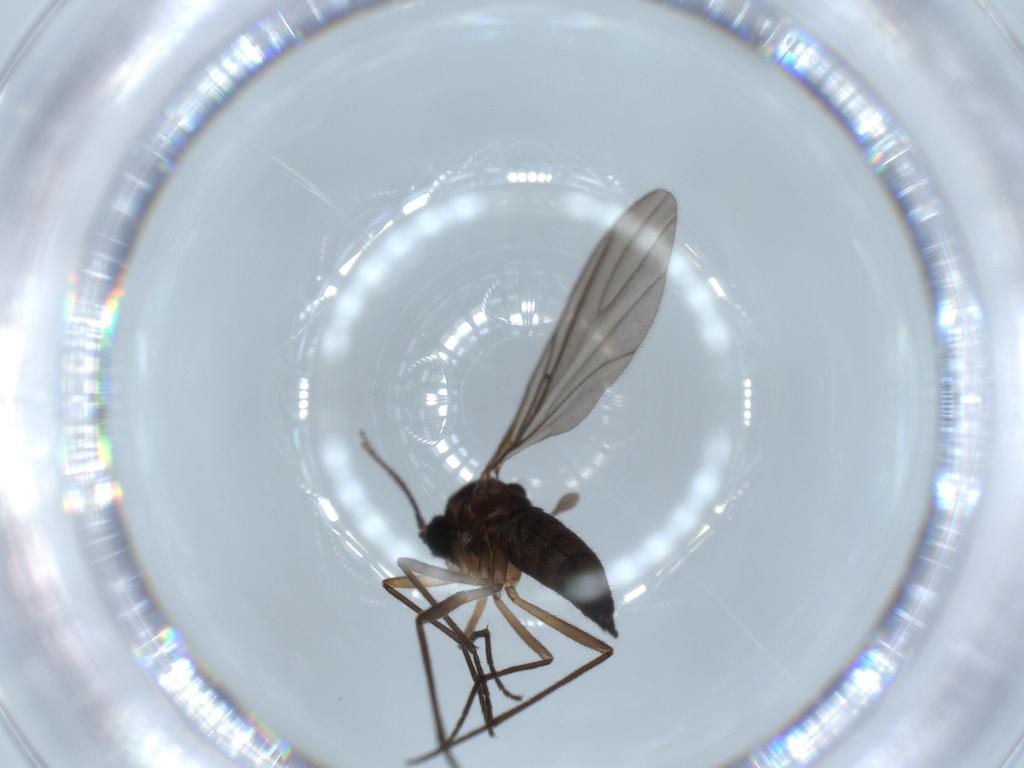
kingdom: Animalia
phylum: Arthropoda
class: Insecta
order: Diptera
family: Sciaridae
